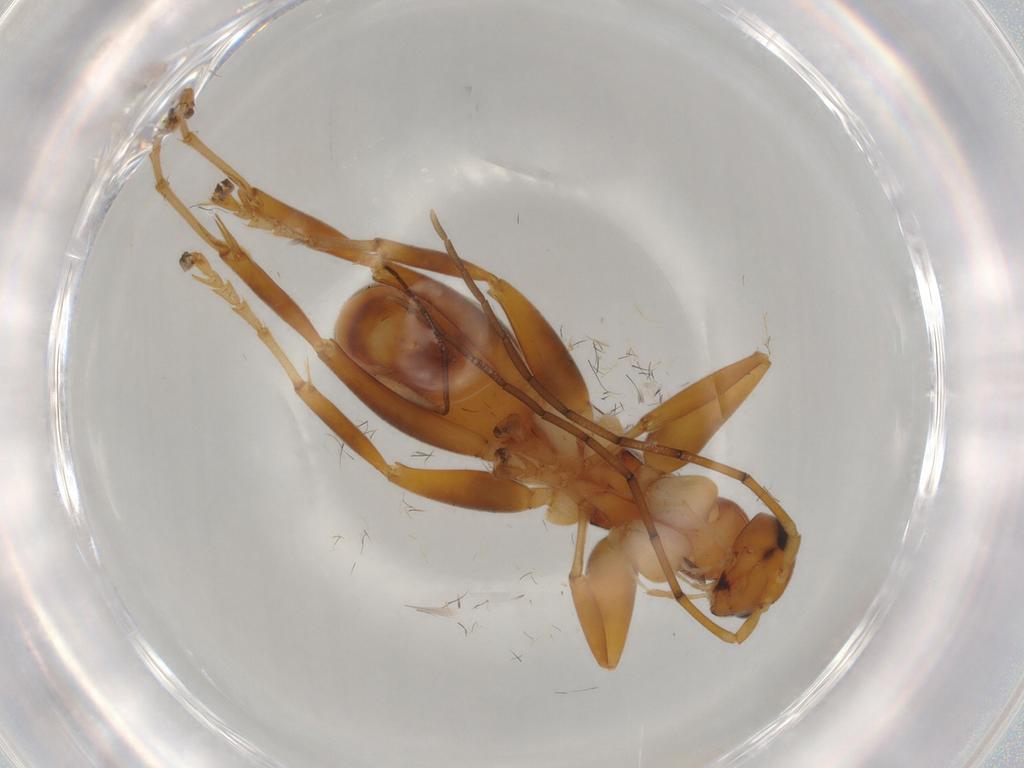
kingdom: Animalia
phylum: Arthropoda
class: Insecta
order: Hymenoptera
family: Rhopalosomatidae
